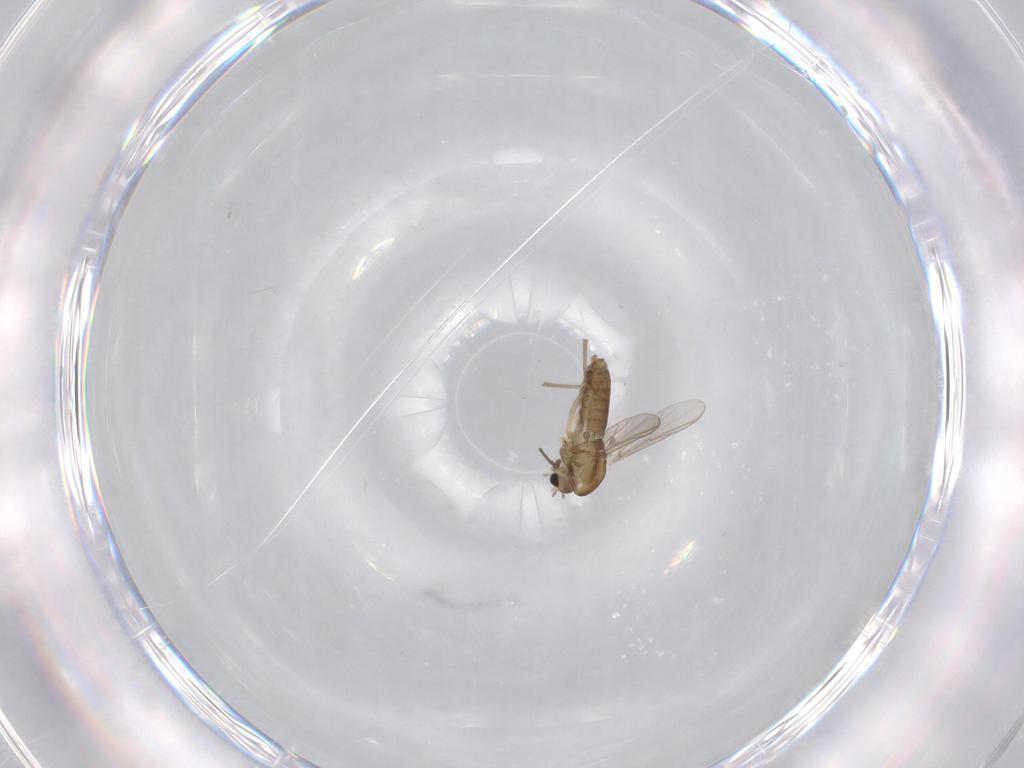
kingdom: Animalia
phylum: Arthropoda
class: Insecta
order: Diptera
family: Chironomidae
